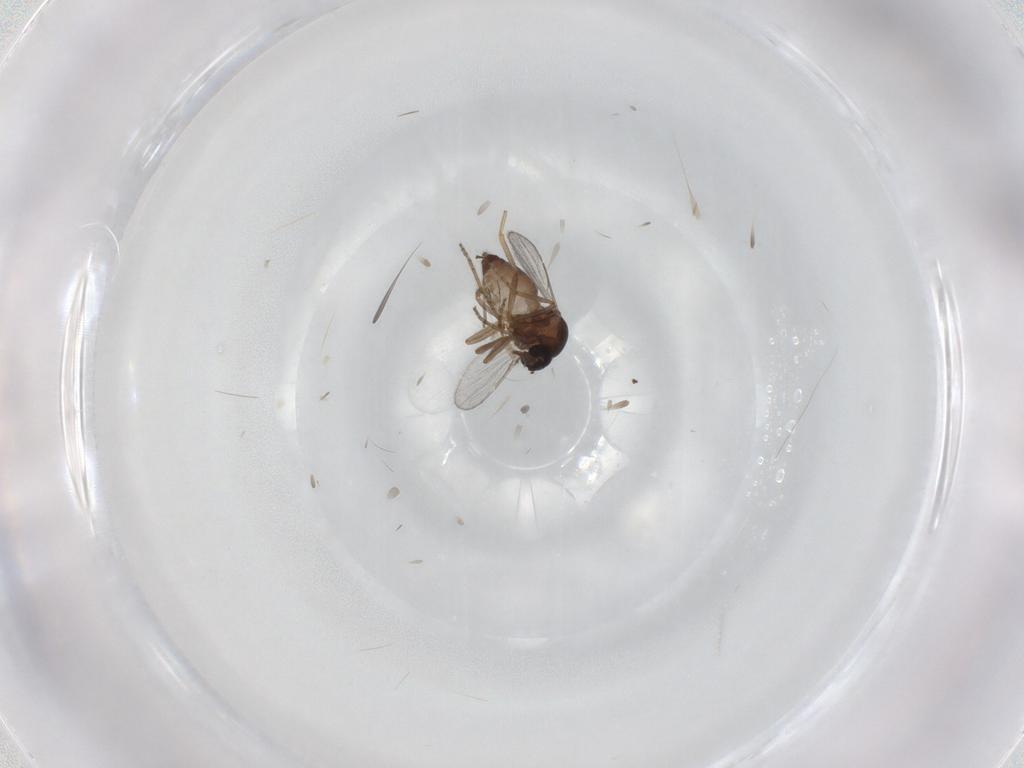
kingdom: Animalia
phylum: Arthropoda
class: Insecta
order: Diptera
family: Ceratopogonidae
